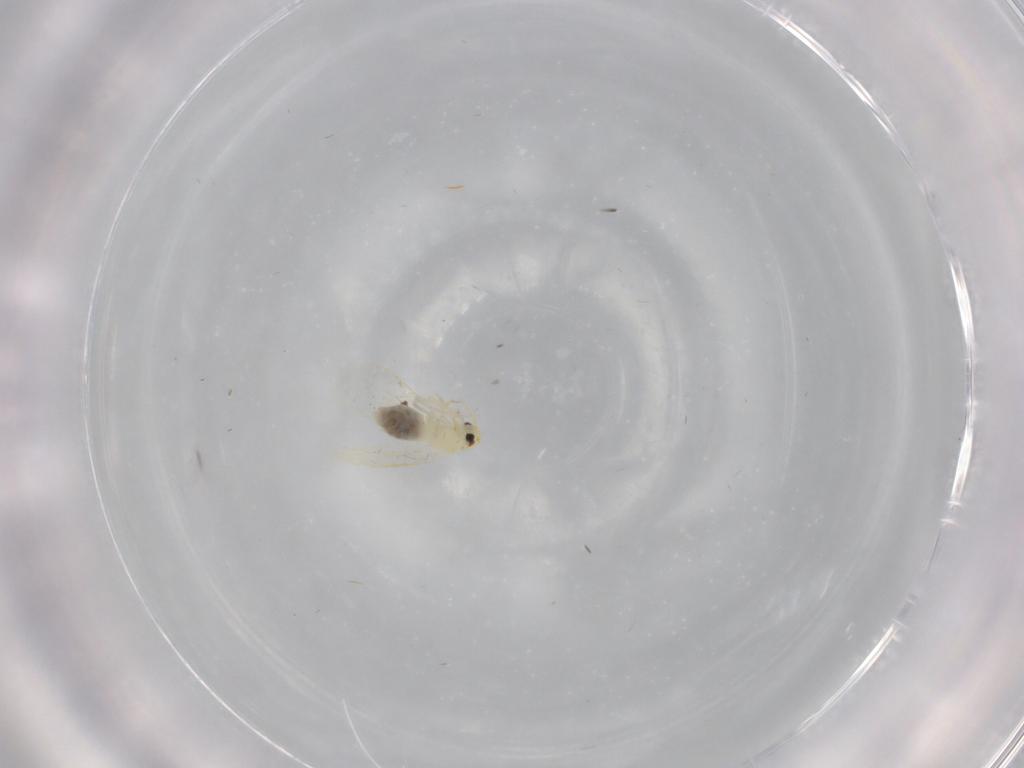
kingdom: Animalia
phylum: Arthropoda
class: Insecta
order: Hemiptera
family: Aleyrodidae
